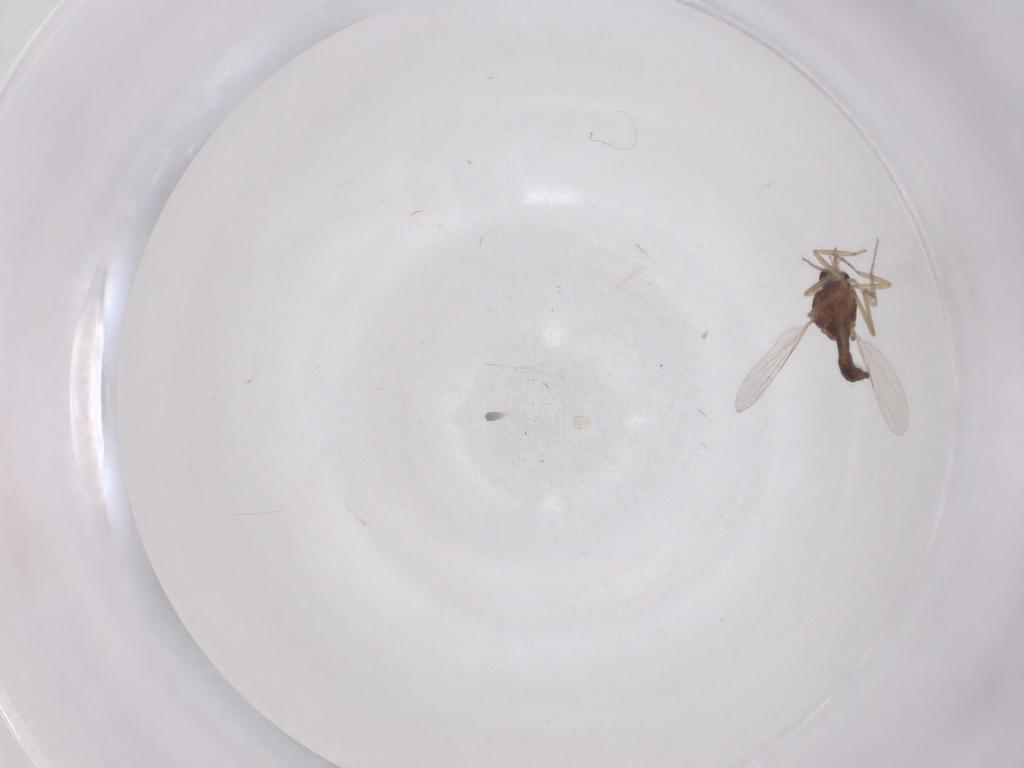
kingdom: Animalia
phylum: Arthropoda
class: Insecta
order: Diptera
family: Ceratopogonidae
